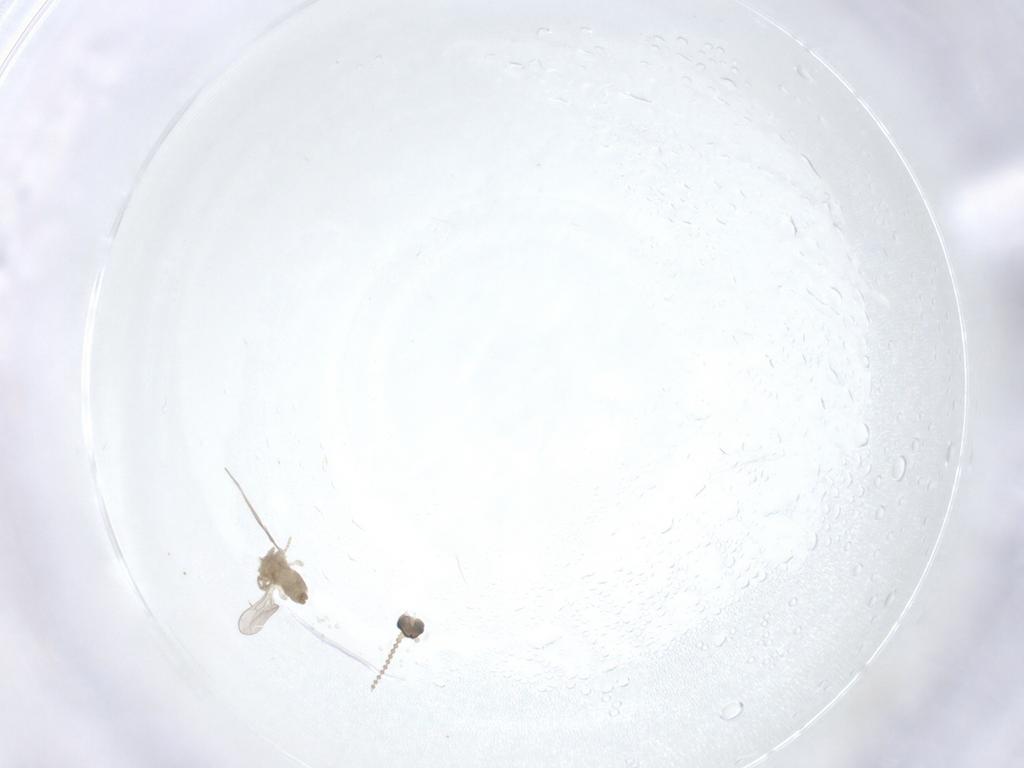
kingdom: Animalia
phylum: Arthropoda
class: Insecta
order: Diptera
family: Cecidomyiidae
